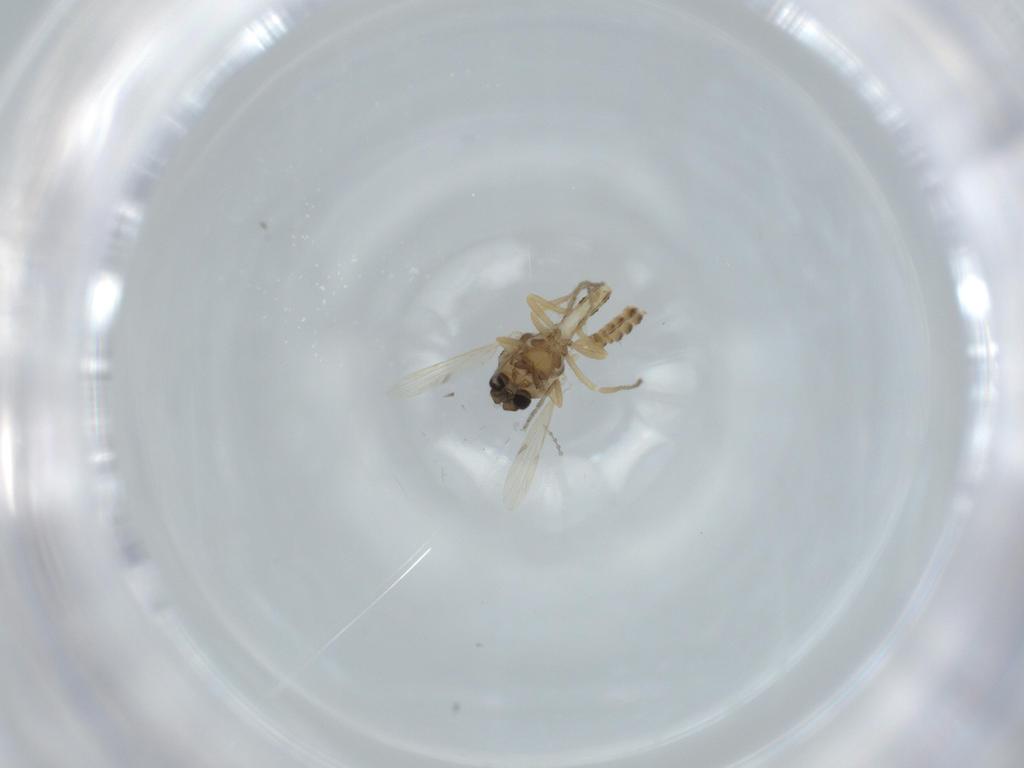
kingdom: Animalia
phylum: Arthropoda
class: Insecta
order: Diptera
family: Cecidomyiidae
